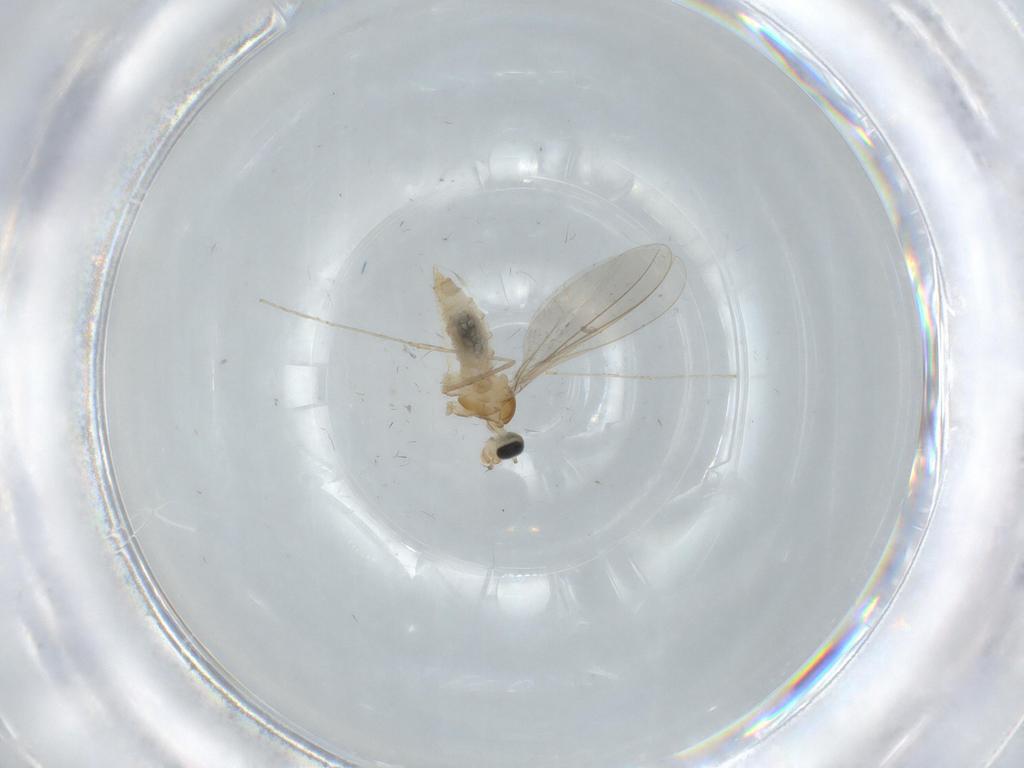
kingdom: Animalia
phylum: Arthropoda
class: Insecta
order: Diptera
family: Cecidomyiidae
